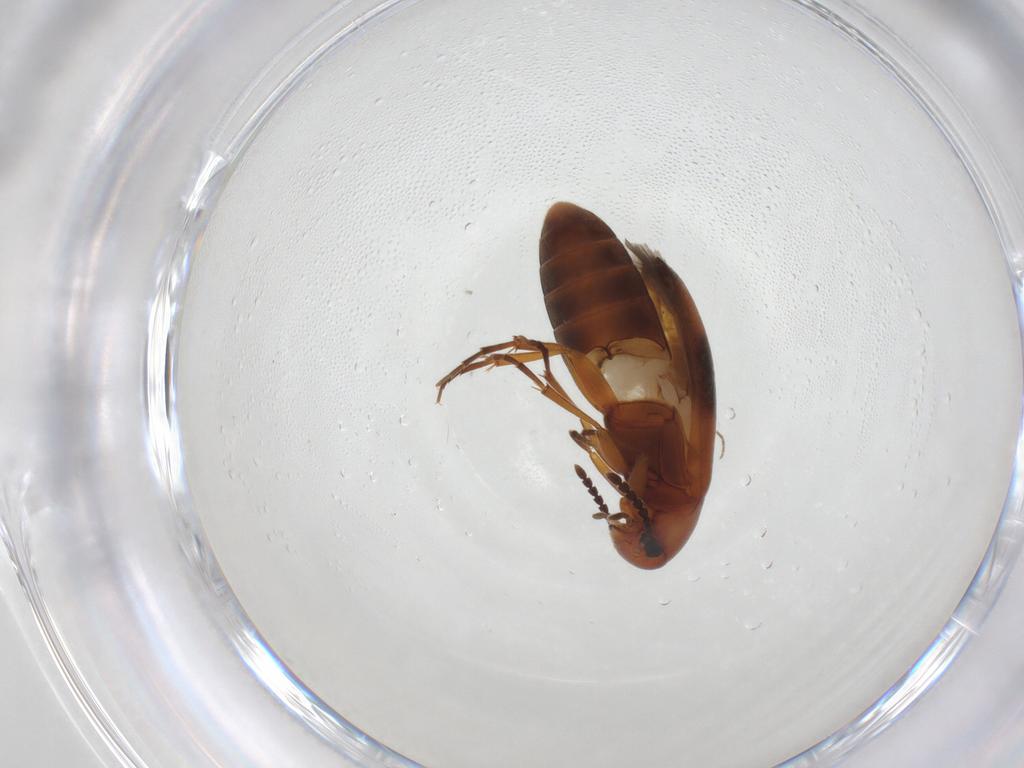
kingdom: Animalia
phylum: Arthropoda
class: Insecta
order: Coleoptera
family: Scraptiidae
